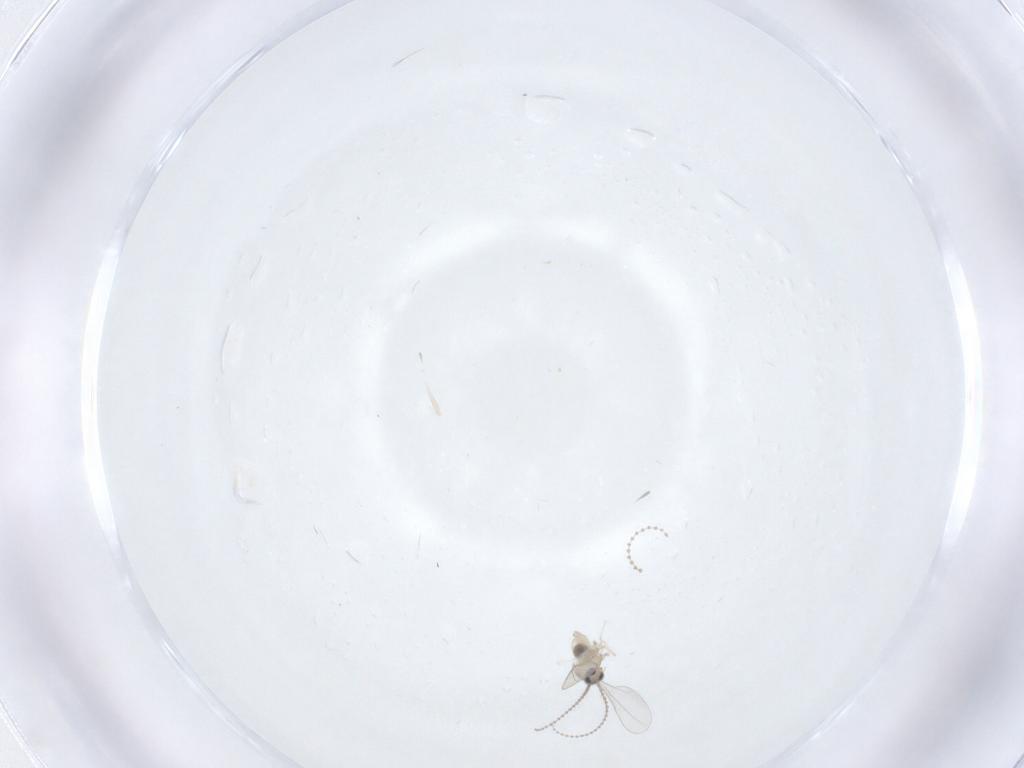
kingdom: Animalia
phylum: Arthropoda
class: Insecta
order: Diptera
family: Cecidomyiidae
